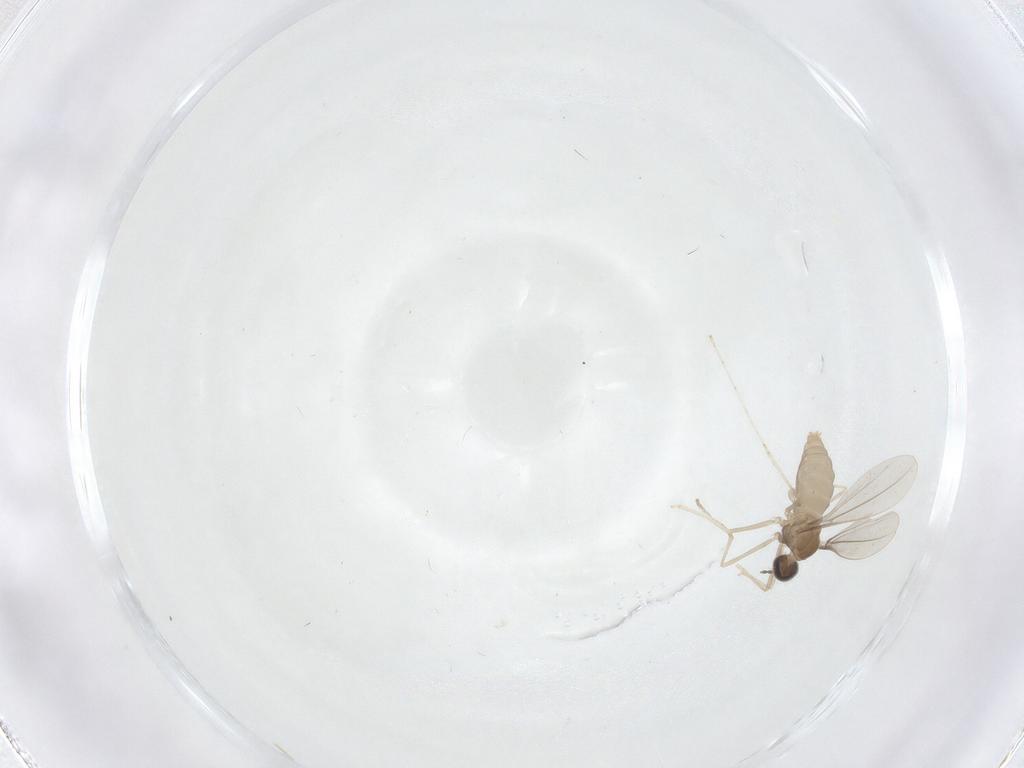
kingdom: Animalia
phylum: Arthropoda
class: Insecta
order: Diptera
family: Cecidomyiidae
